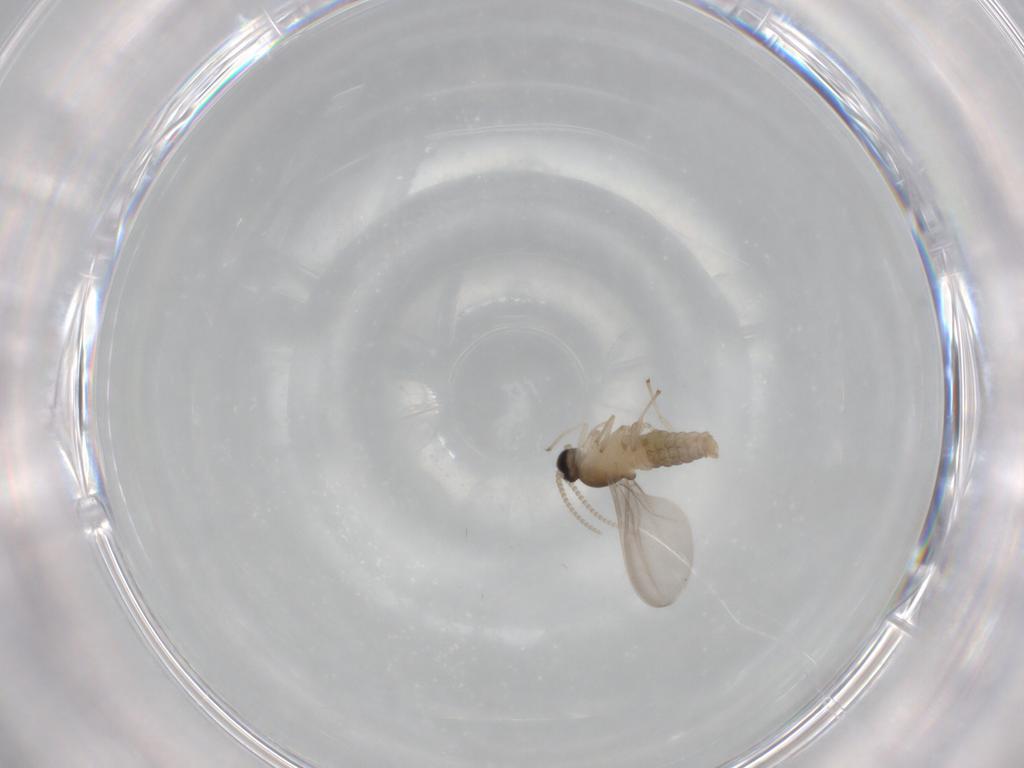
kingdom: Animalia
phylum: Arthropoda
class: Insecta
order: Diptera
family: Cecidomyiidae
